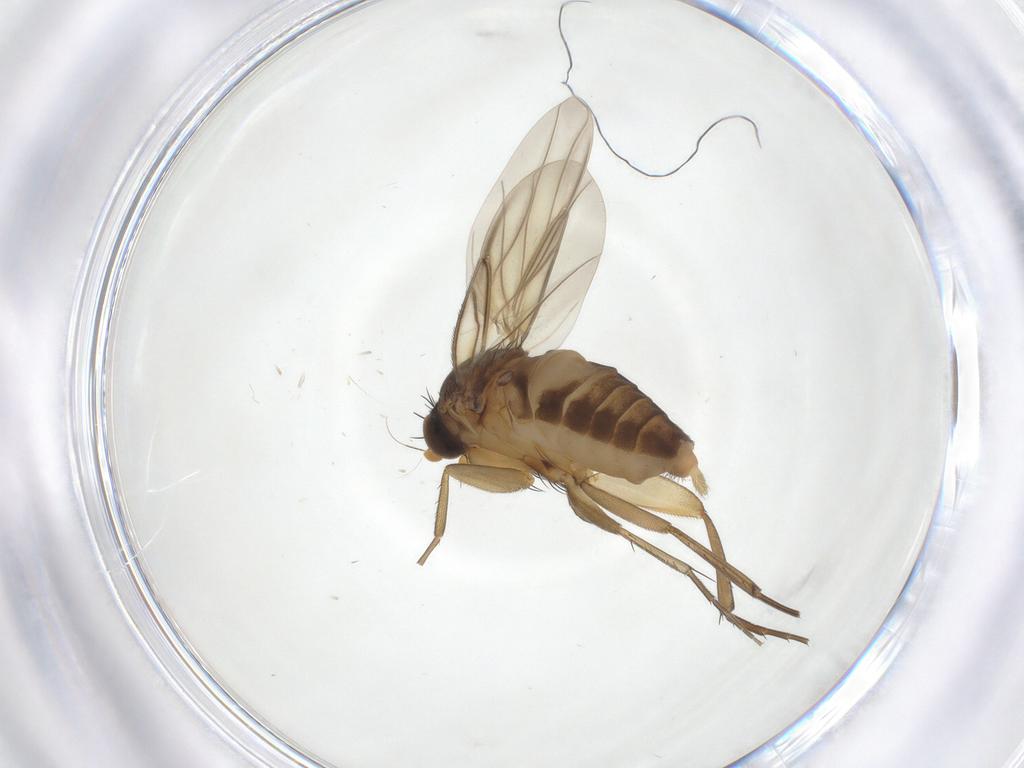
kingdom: Animalia
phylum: Arthropoda
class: Insecta
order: Diptera
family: Phoridae
